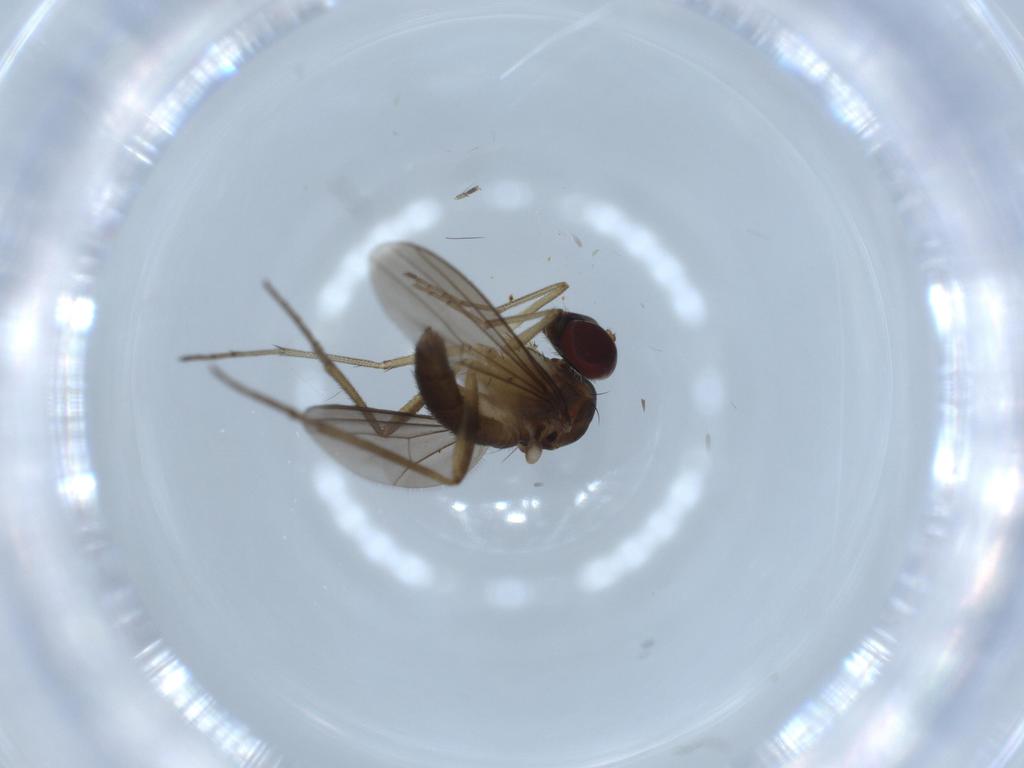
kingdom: Animalia
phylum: Arthropoda
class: Insecta
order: Diptera
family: Dolichopodidae
